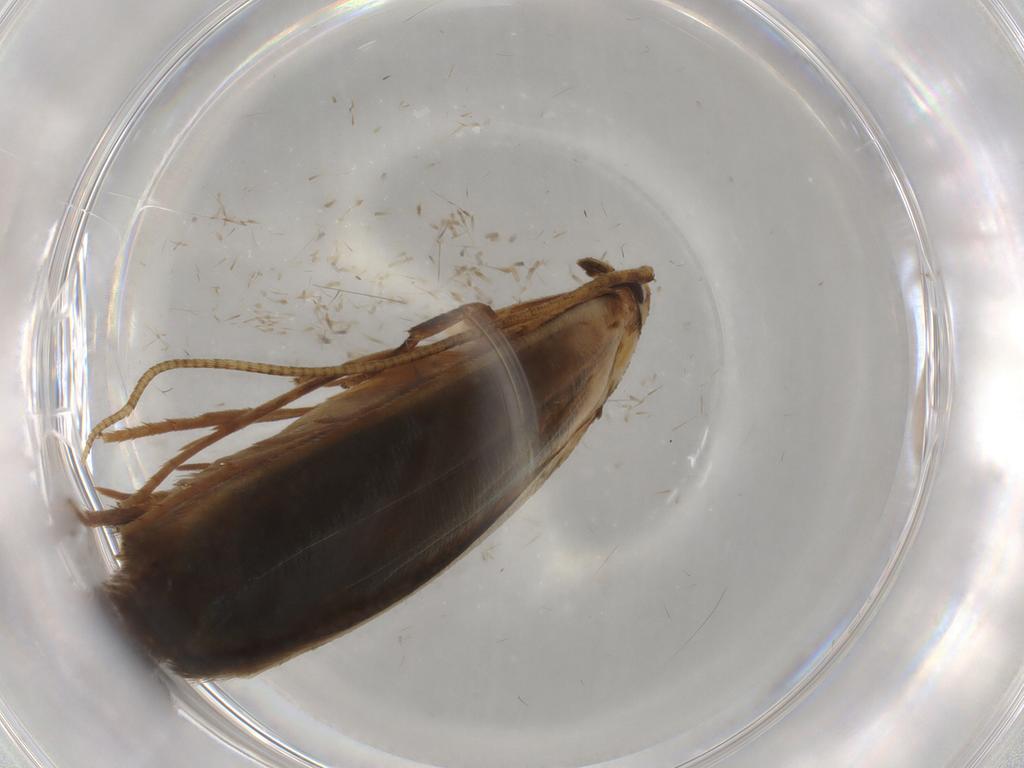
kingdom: Animalia
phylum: Arthropoda
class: Insecta
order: Lepidoptera
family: Tineidae
